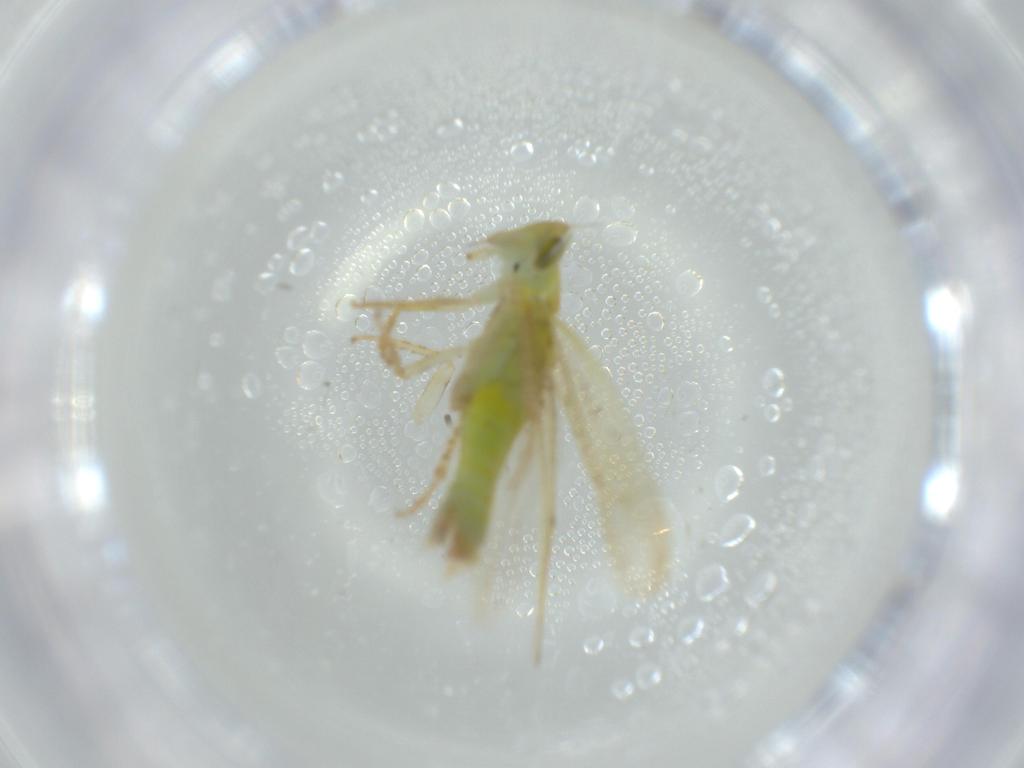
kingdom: Animalia
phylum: Arthropoda
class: Insecta
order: Hemiptera
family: Cicadellidae
